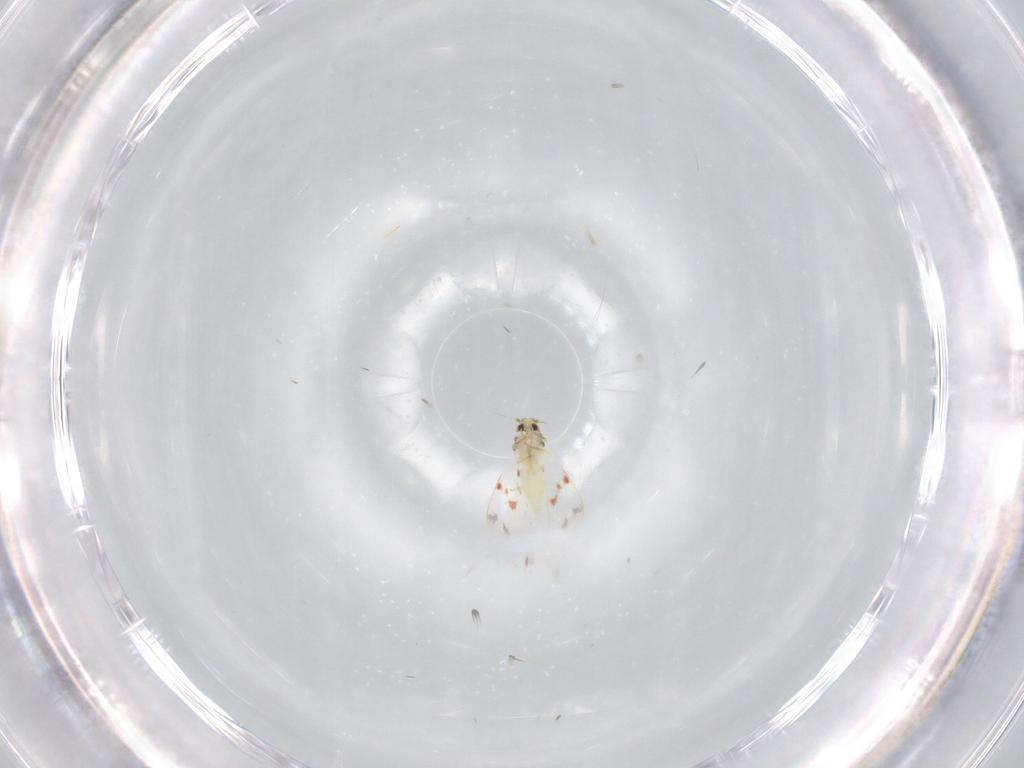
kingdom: Animalia
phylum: Arthropoda
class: Insecta
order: Hemiptera
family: Aleyrodidae
